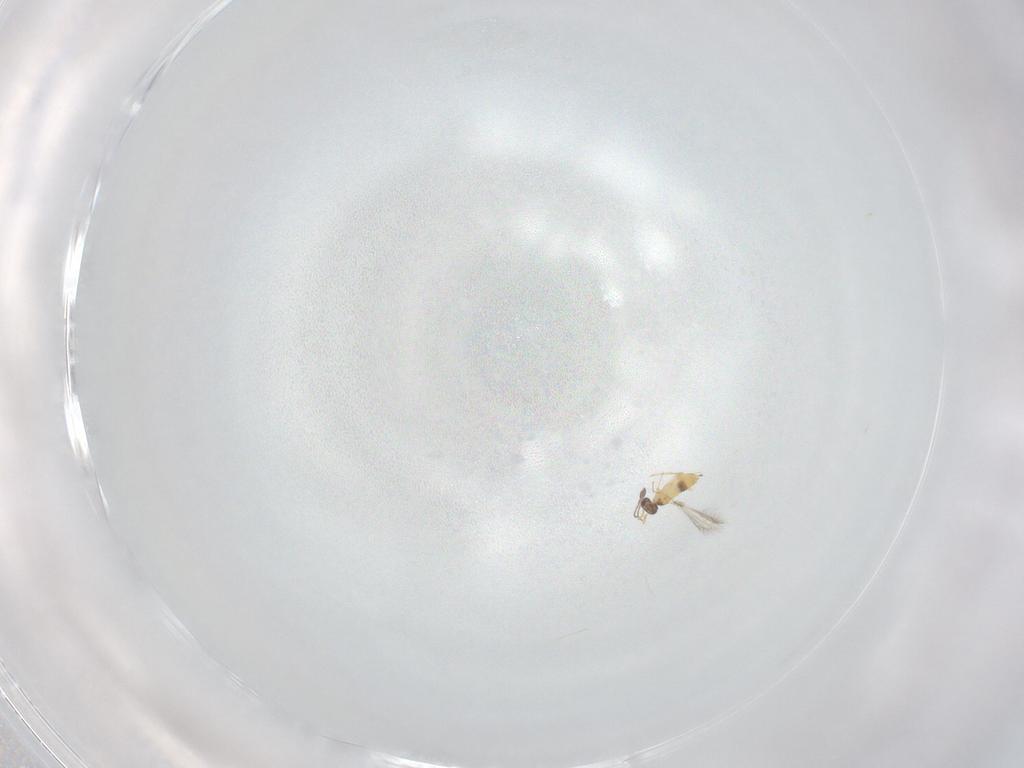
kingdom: Animalia
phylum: Arthropoda
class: Insecta
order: Hymenoptera
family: Mymaridae
